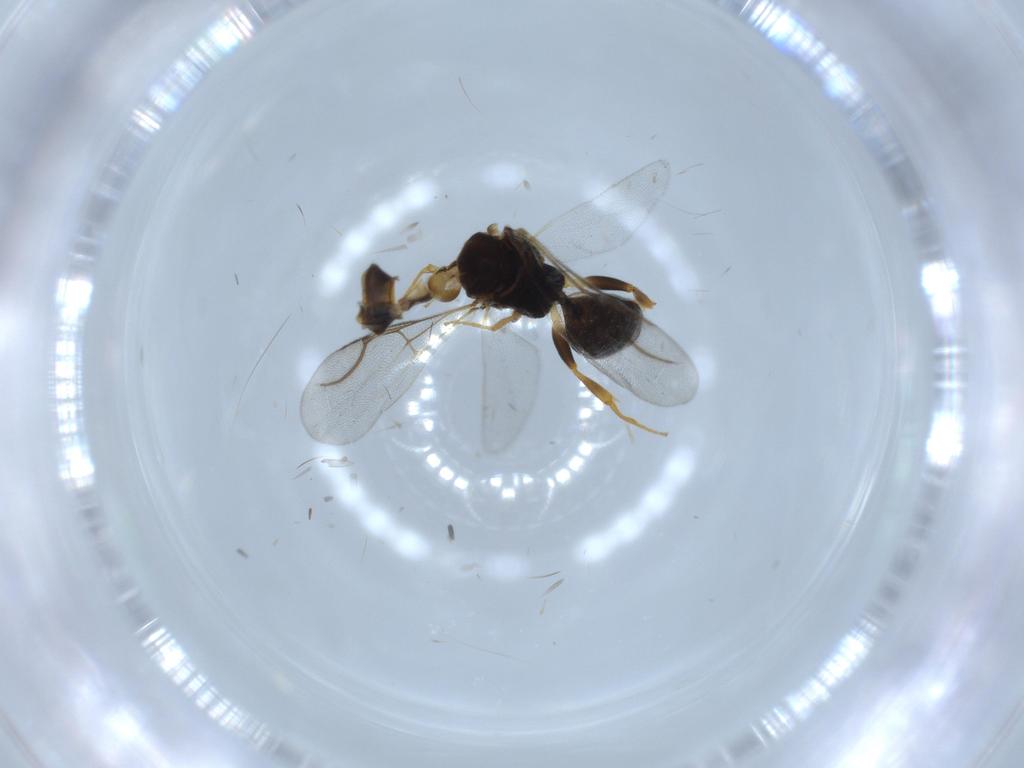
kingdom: Animalia
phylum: Arthropoda
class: Insecta
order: Hymenoptera
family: Bethylidae
